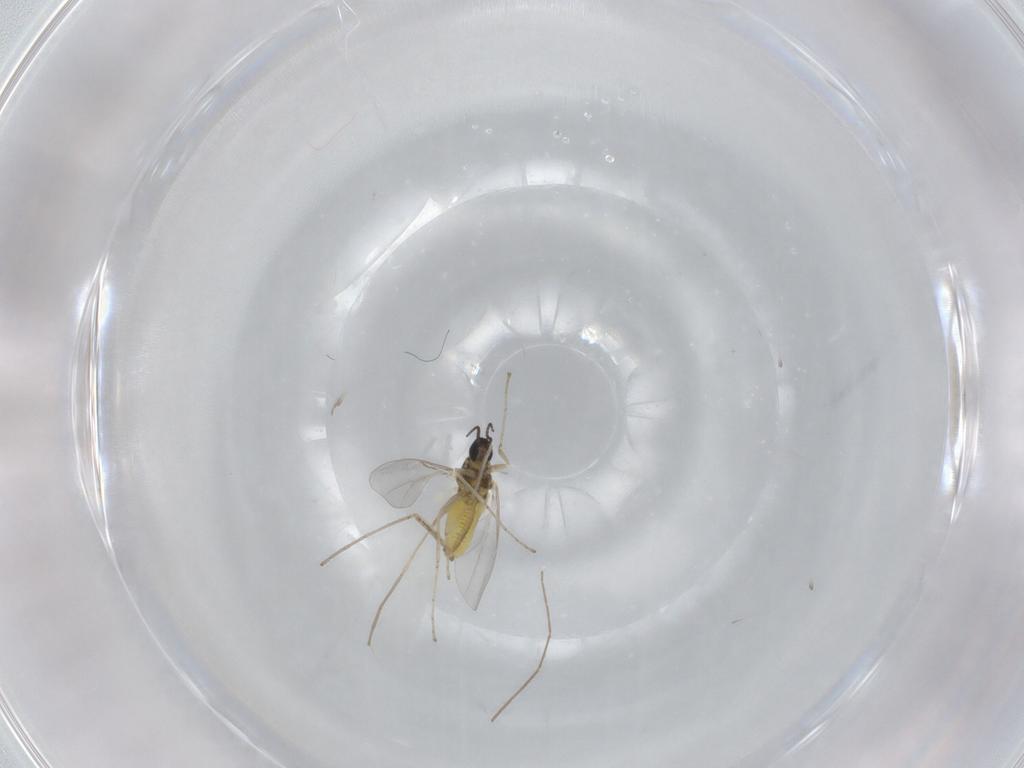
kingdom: Animalia
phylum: Arthropoda
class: Insecta
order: Diptera
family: Cecidomyiidae
